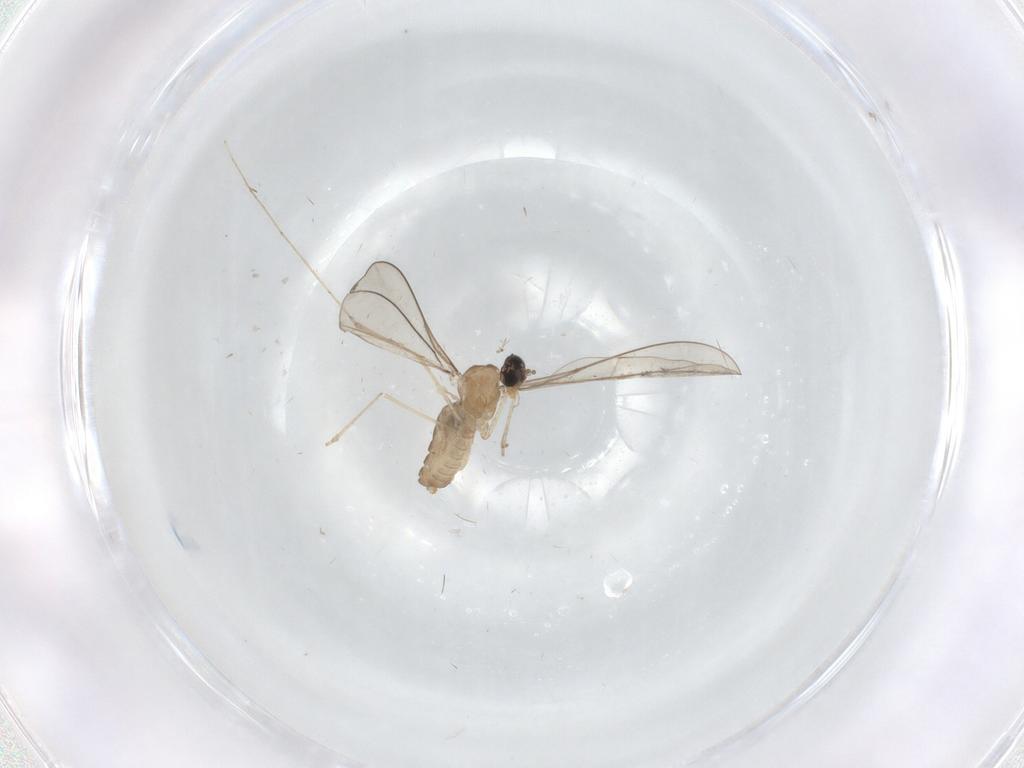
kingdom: Animalia
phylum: Arthropoda
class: Insecta
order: Diptera
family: Cecidomyiidae
